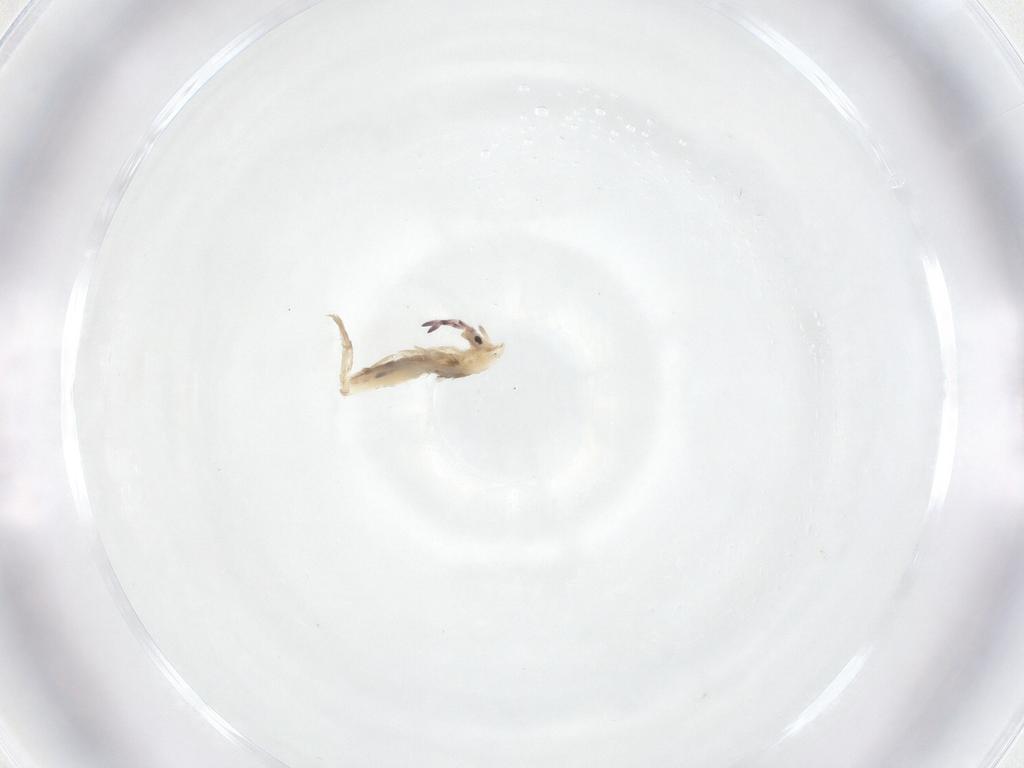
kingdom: Animalia
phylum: Arthropoda
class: Collembola
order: Entomobryomorpha
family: Entomobryidae
